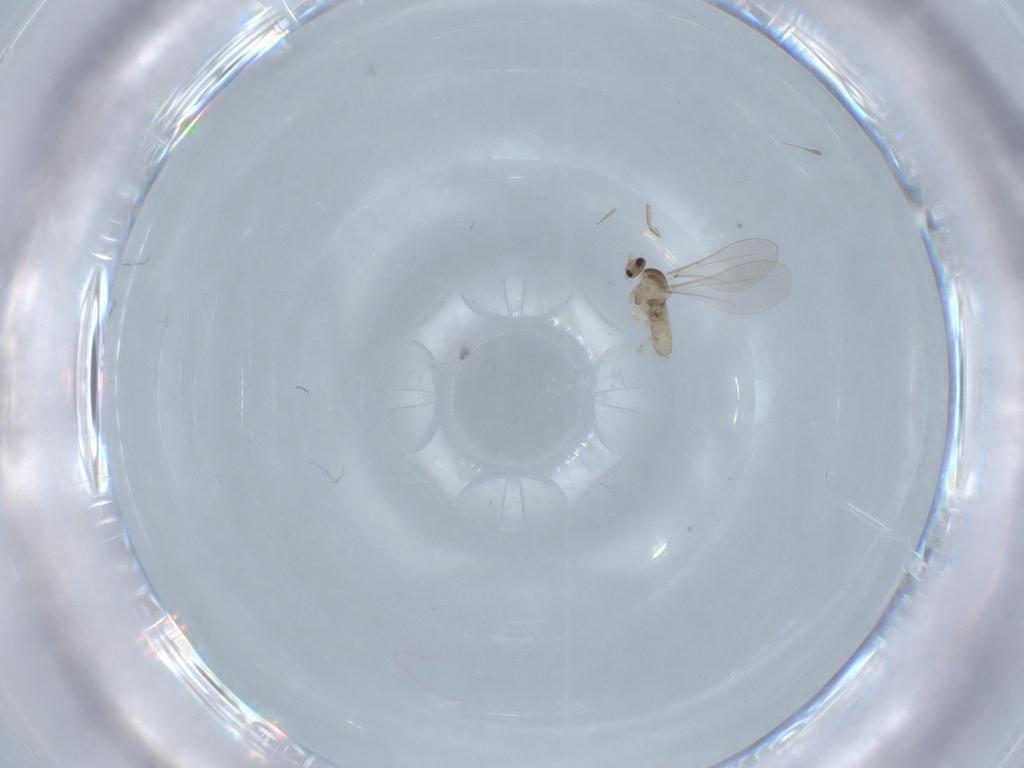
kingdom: Animalia
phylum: Arthropoda
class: Insecta
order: Diptera
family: Cecidomyiidae
